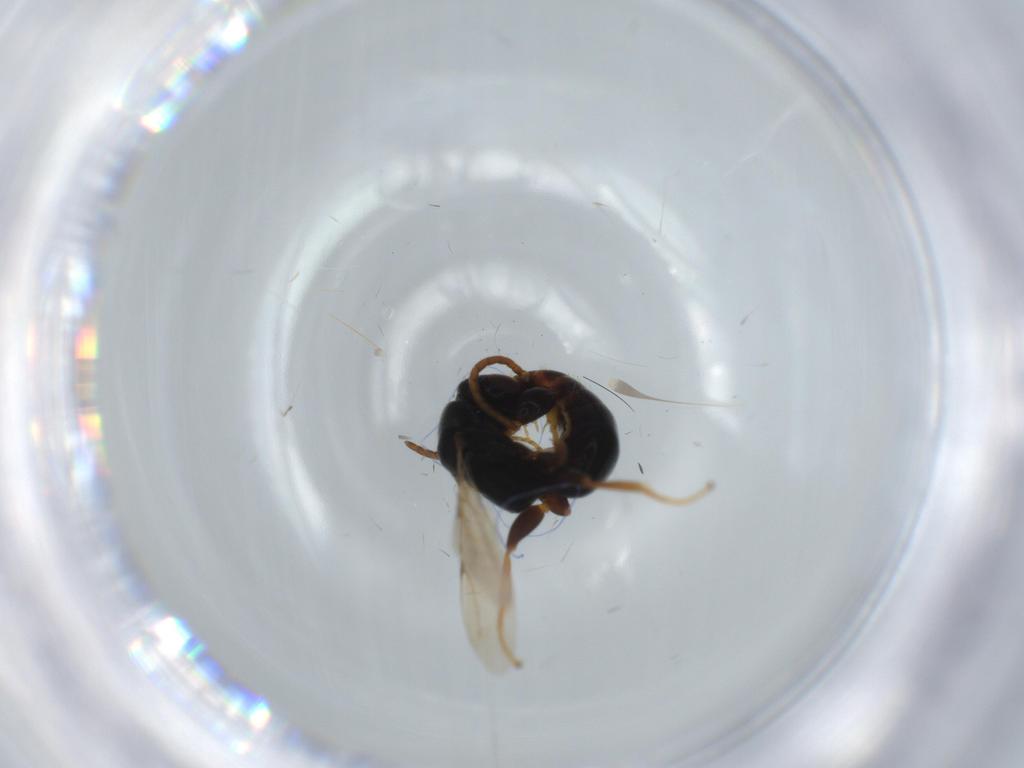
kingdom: Animalia
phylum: Arthropoda
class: Insecta
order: Hymenoptera
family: Bethylidae
